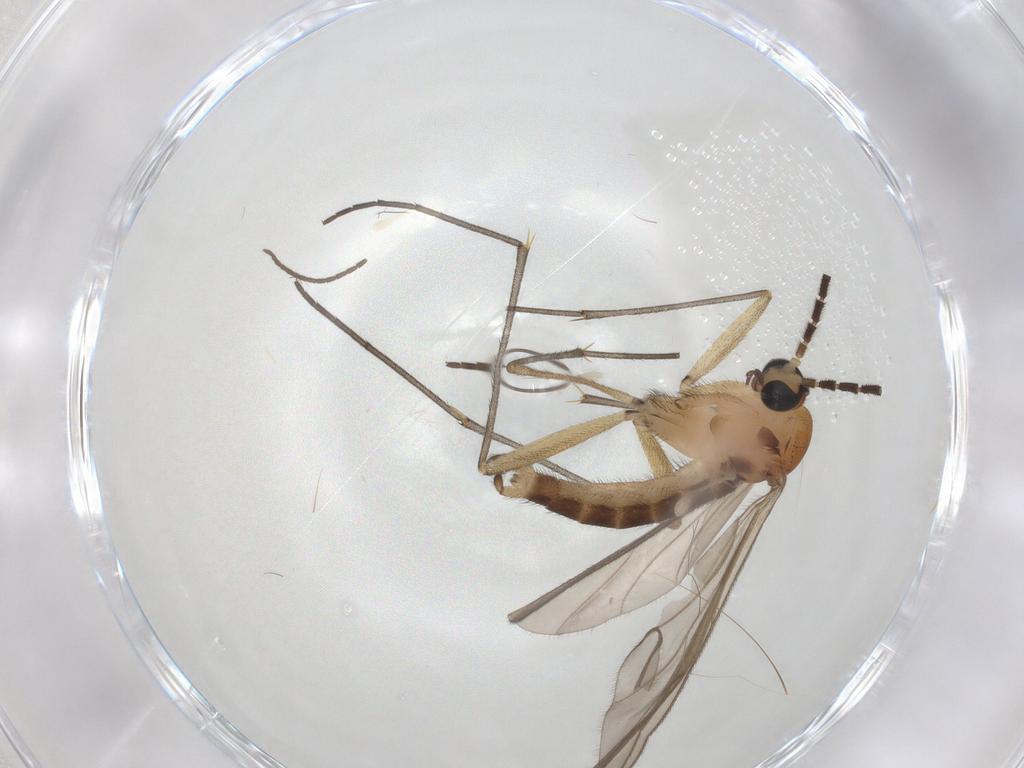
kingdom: Animalia
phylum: Arthropoda
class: Insecta
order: Diptera
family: Sciaridae
